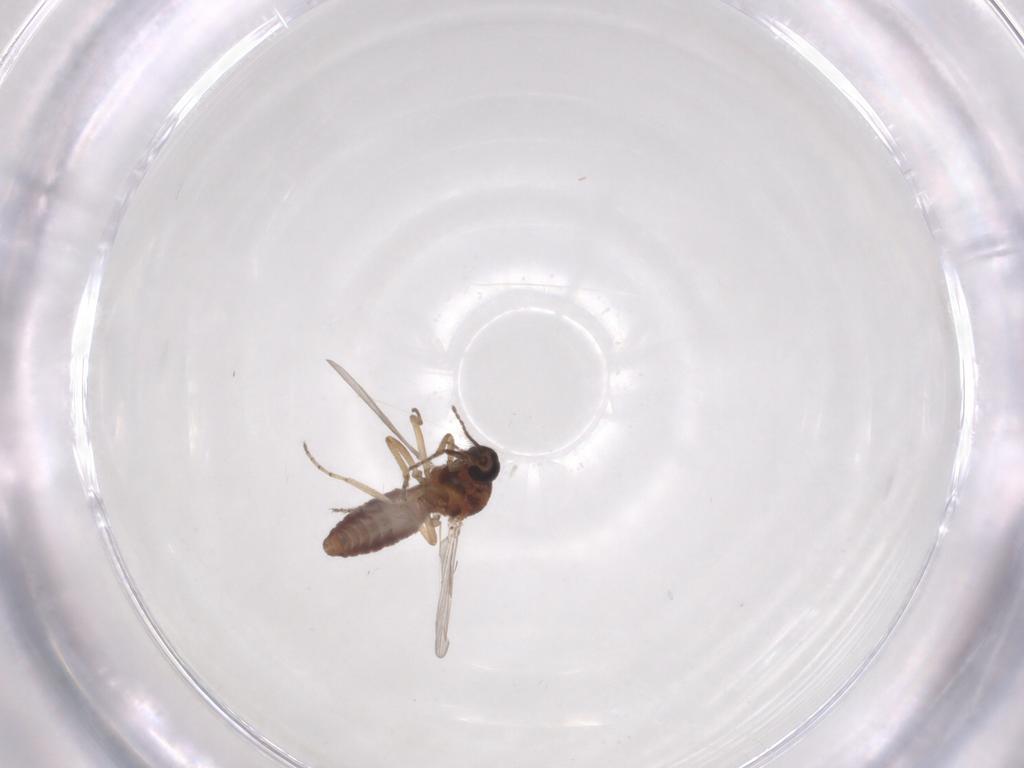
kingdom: Animalia
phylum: Arthropoda
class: Insecta
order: Diptera
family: Ceratopogonidae
